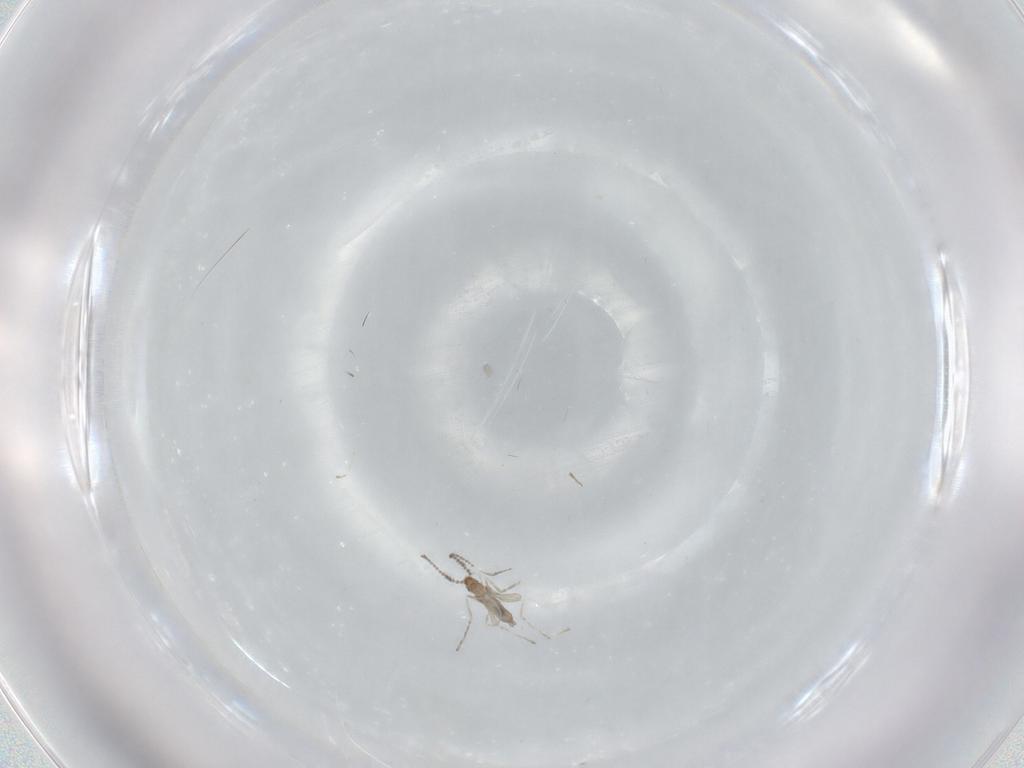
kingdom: Animalia
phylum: Arthropoda
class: Insecta
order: Diptera
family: Cecidomyiidae
